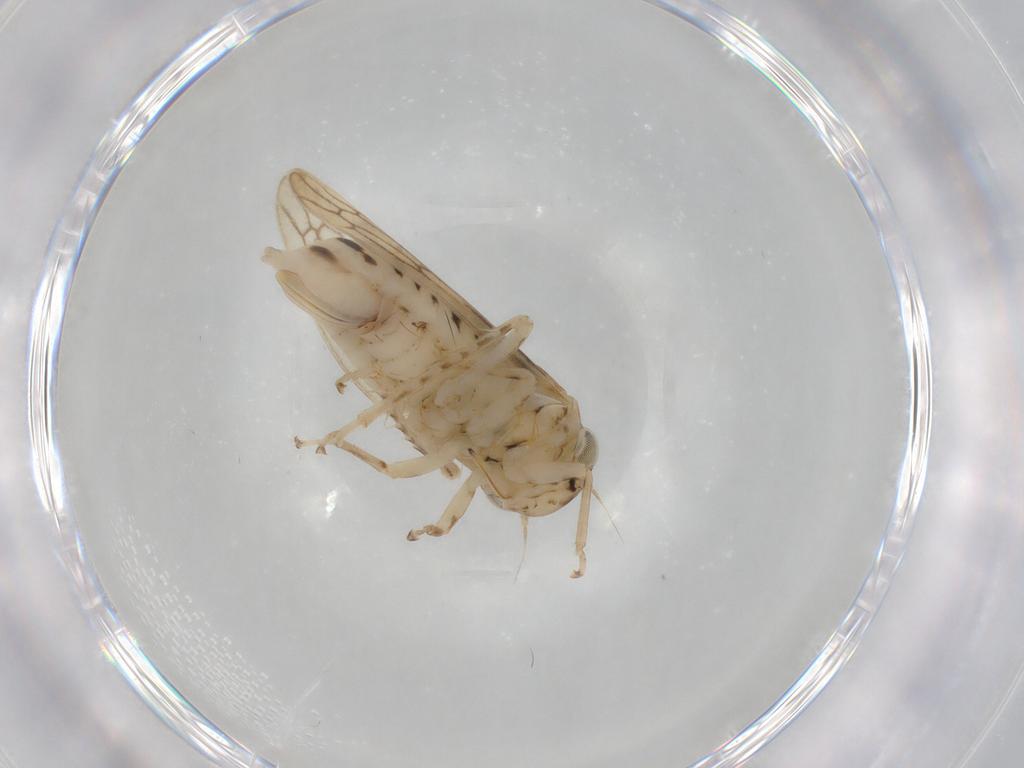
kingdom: Animalia
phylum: Arthropoda
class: Insecta
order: Hemiptera
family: Cicadellidae
